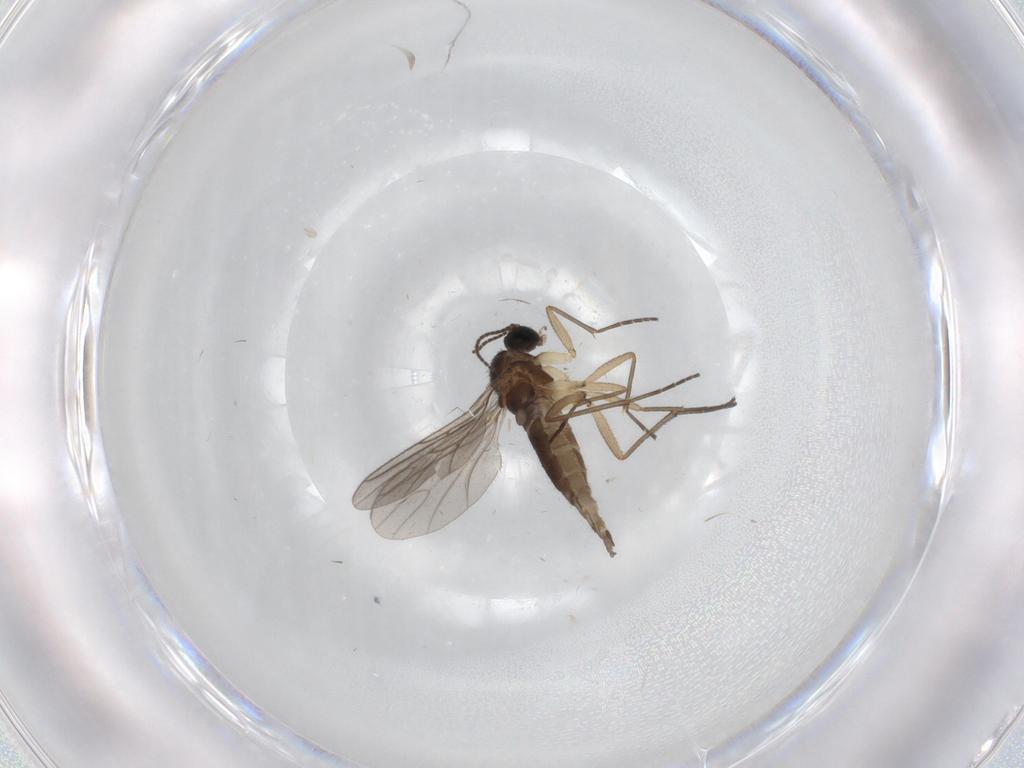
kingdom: Animalia
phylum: Arthropoda
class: Insecta
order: Diptera
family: Sciaridae
